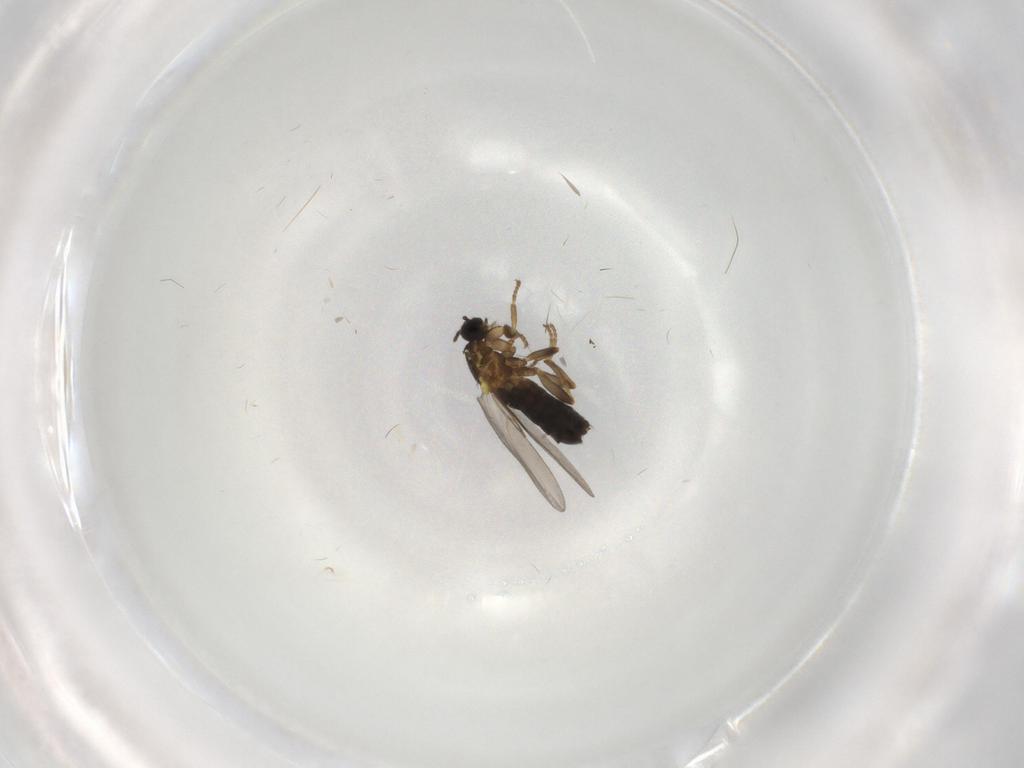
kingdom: Animalia
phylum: Arthropoda
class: Insecta
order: Diptera
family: Scatopsidae
